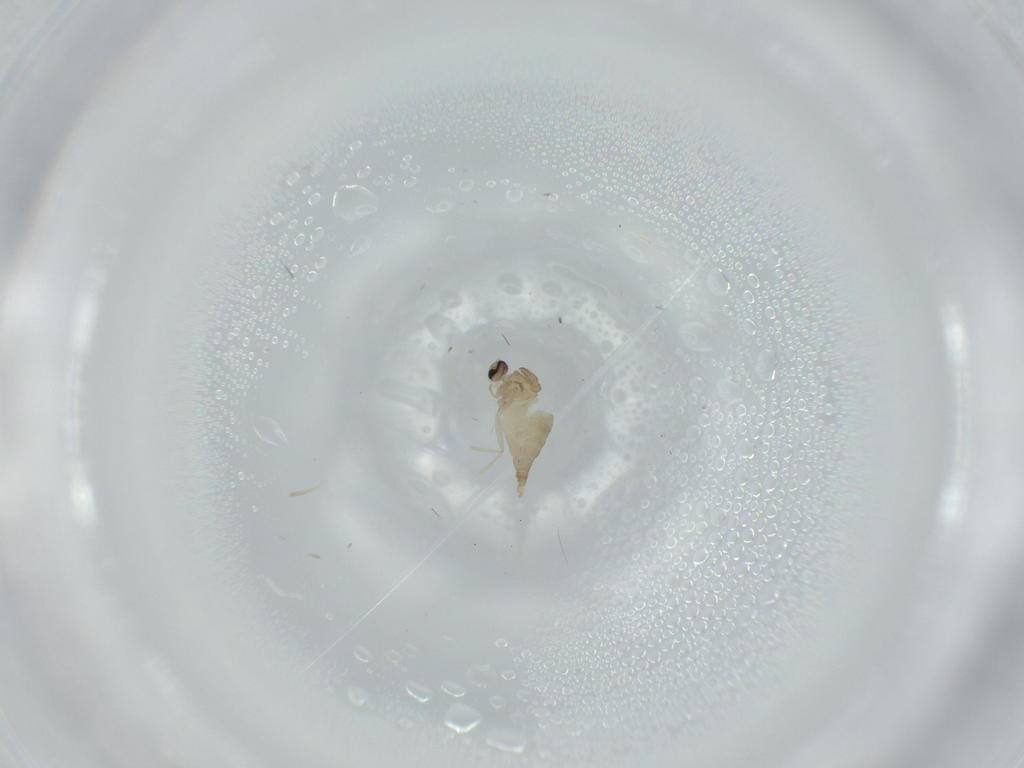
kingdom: Animalia
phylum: Arthropoda
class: Insecta
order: Diptera
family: Cecidomyiidae
